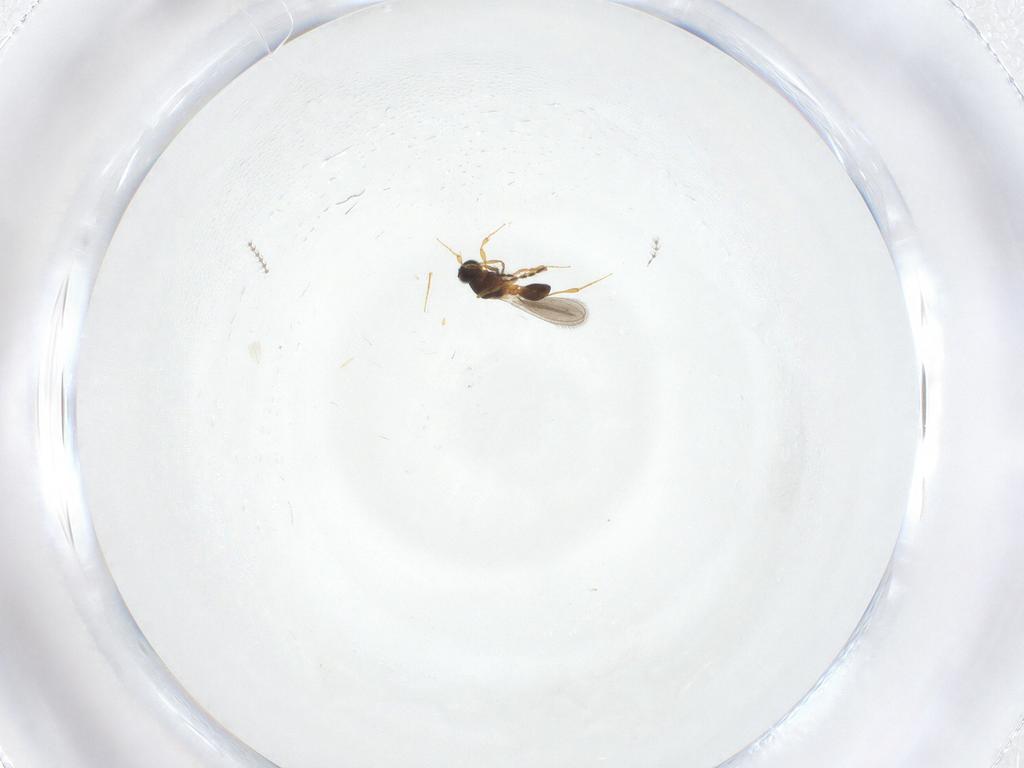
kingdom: Animalia
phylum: Arthropoda
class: Insecta
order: Hymenoptera
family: Platygastridae
